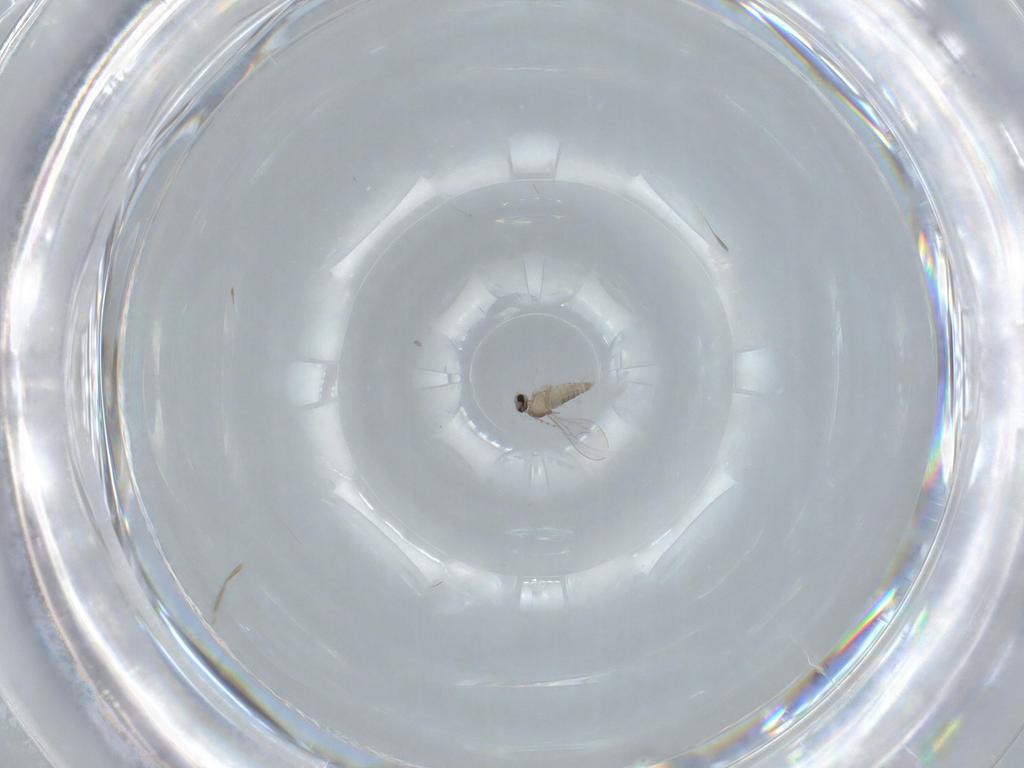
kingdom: Animalia
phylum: Arthropoda
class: Insecta
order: Diptera
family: Cecidomyiidae
